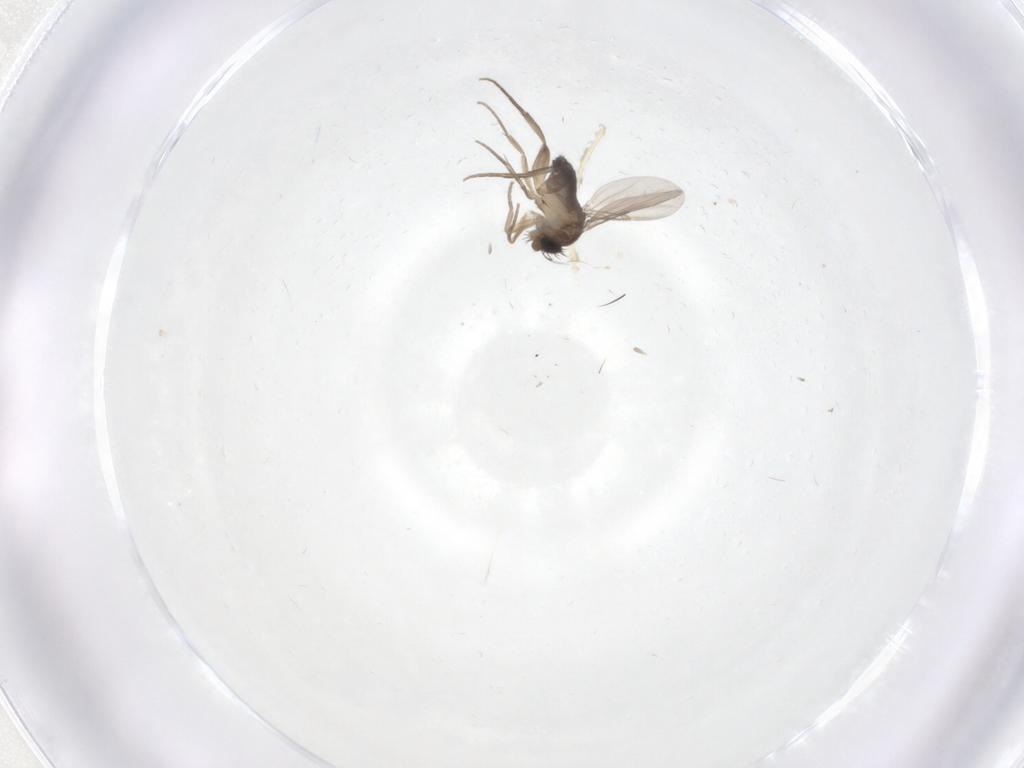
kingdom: Animalia
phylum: Arthropoda
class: Insecta
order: Diptera
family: Phoridae
